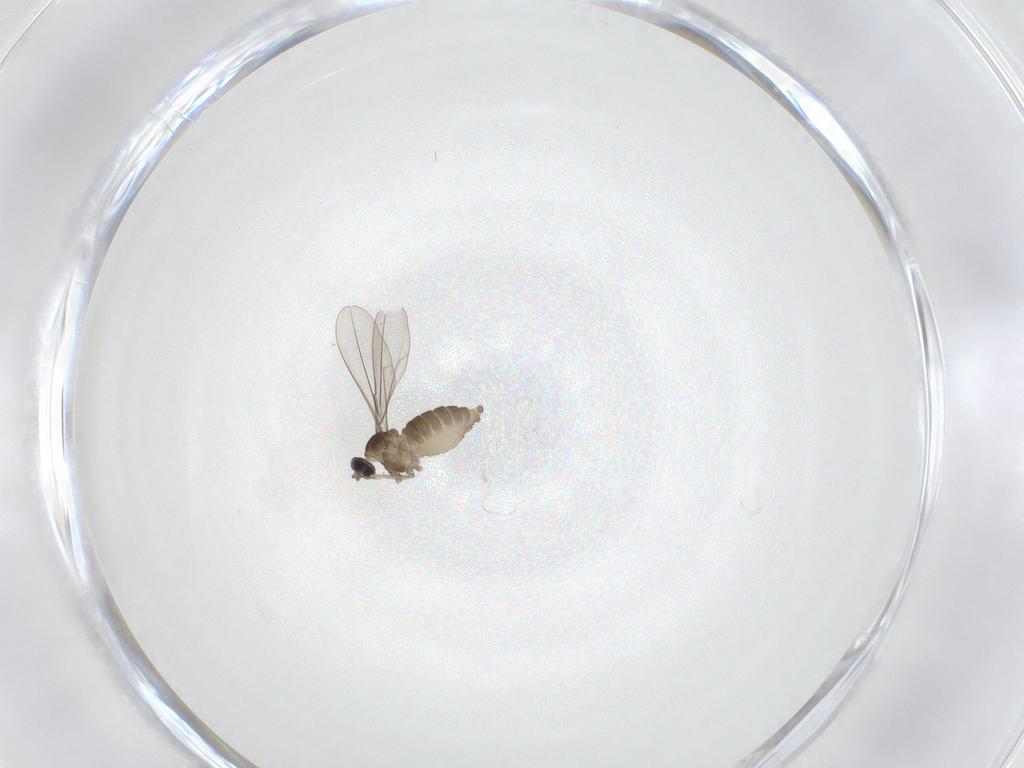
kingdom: Animalia
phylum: Arthropoda
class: Insecta
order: Diptera
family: Cecidomyiidae
